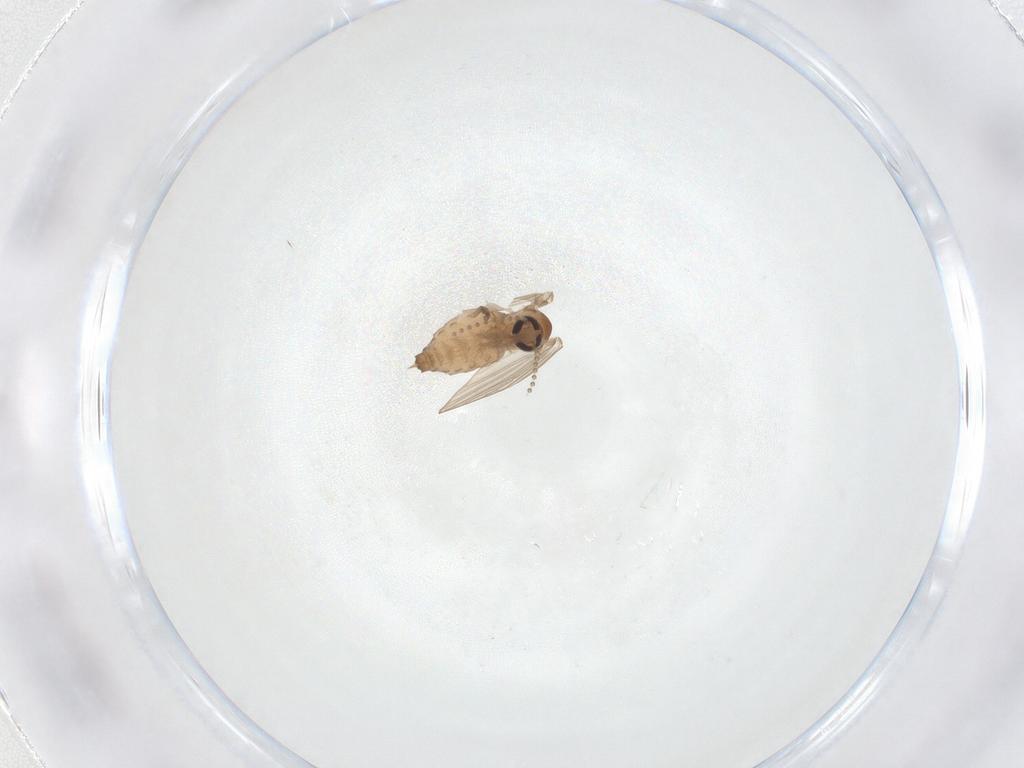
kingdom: Animalia
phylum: Arthropoda
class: Insecta
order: Diptera
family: Psychodidae
